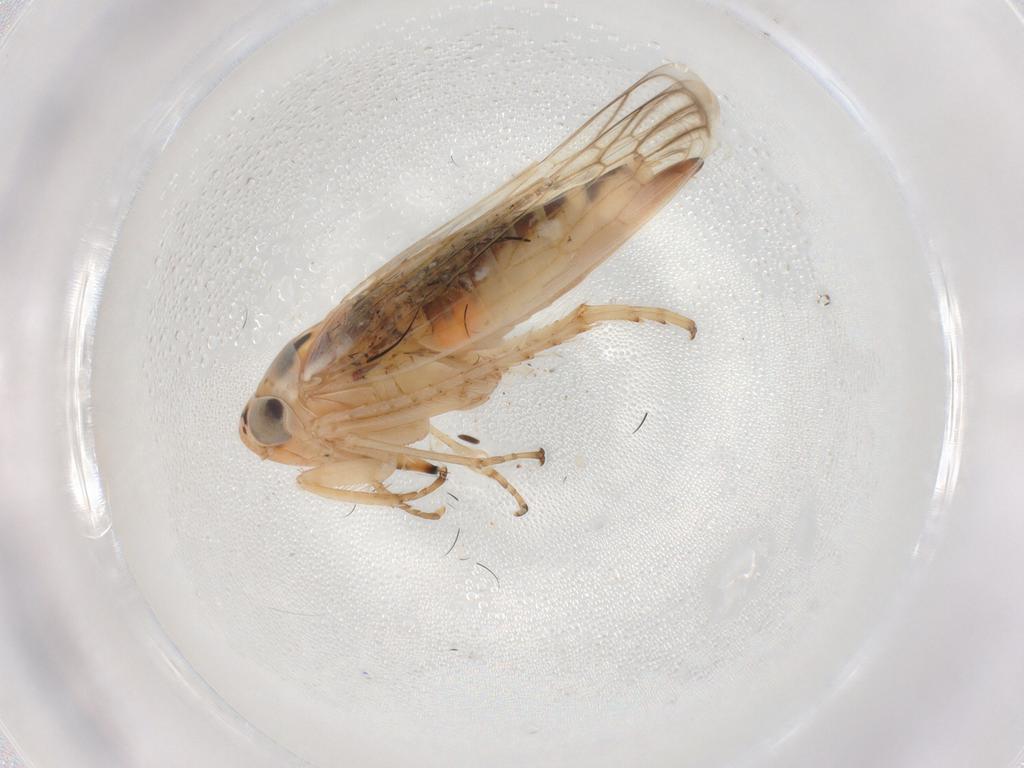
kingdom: Animalia
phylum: Arthropoda
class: Insecta
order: Hemiptera
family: Cicadellidae
